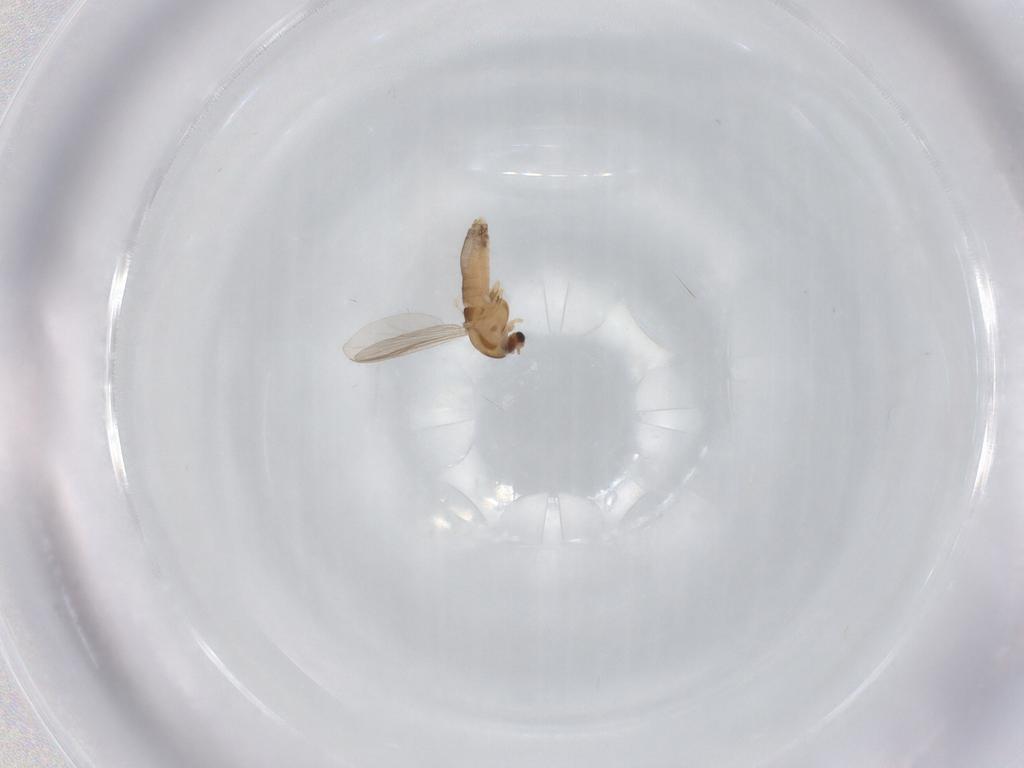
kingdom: Animalia
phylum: Arthropoda
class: Insecta
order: Diptera
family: Chironomidae
